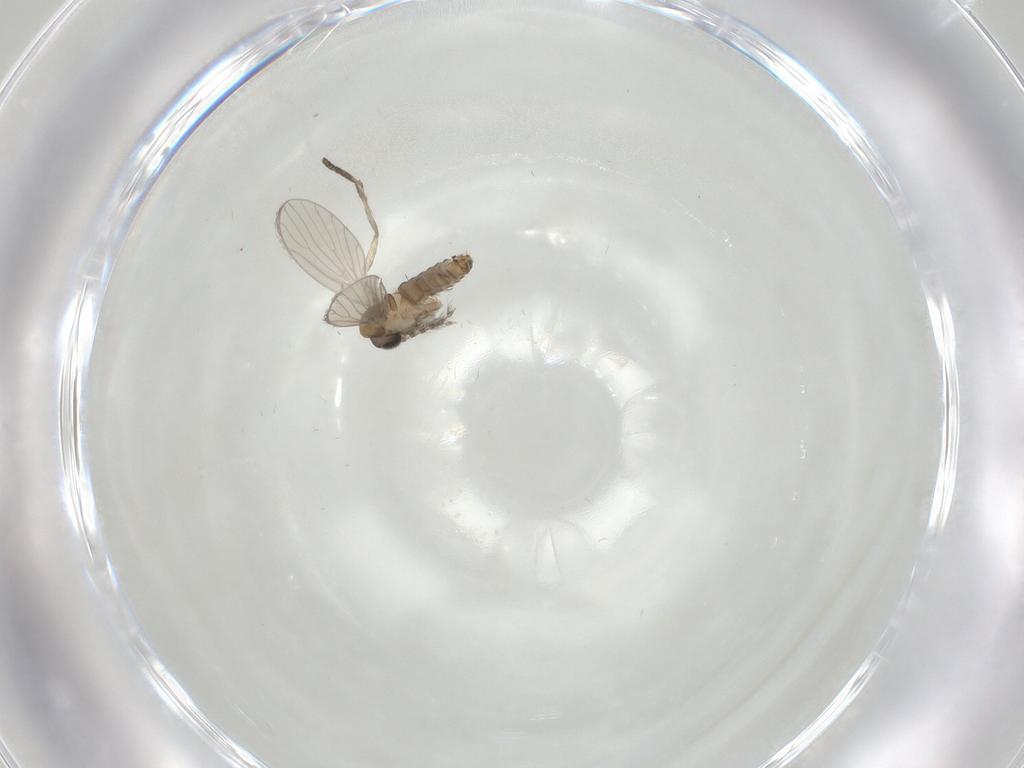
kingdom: Animalia
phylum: Arthropoda
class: Insecta
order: Diptera
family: Psychodidae
